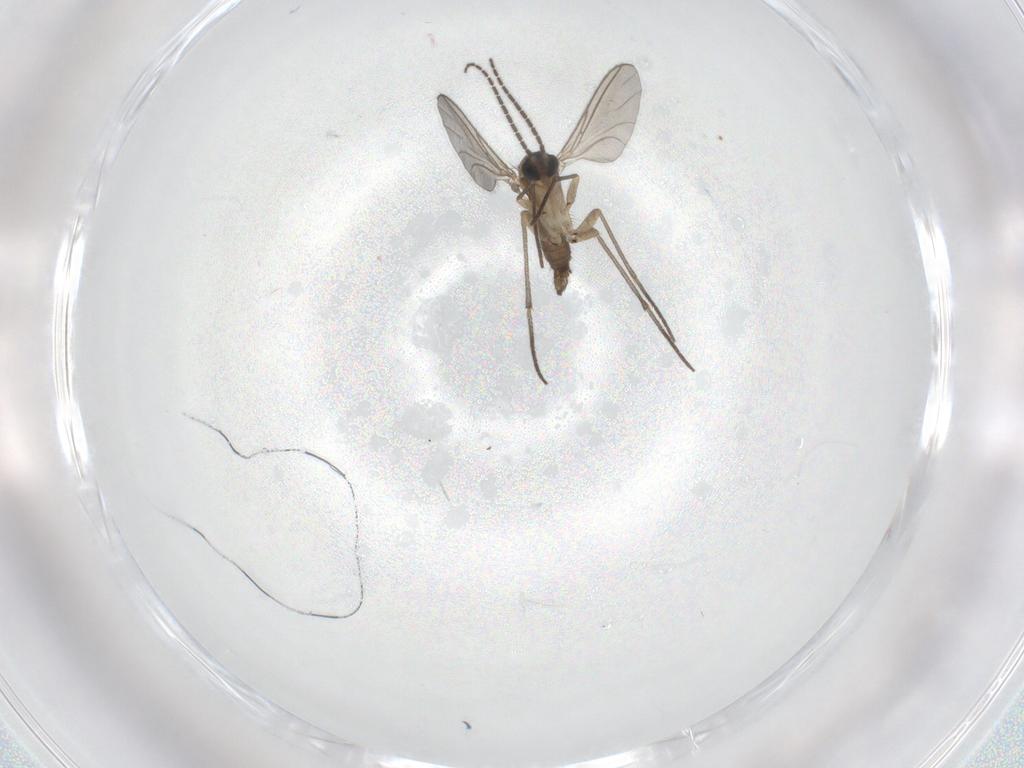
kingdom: Animalia
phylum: Arthropoda
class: Insecta
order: Diptera
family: Sciaridae
